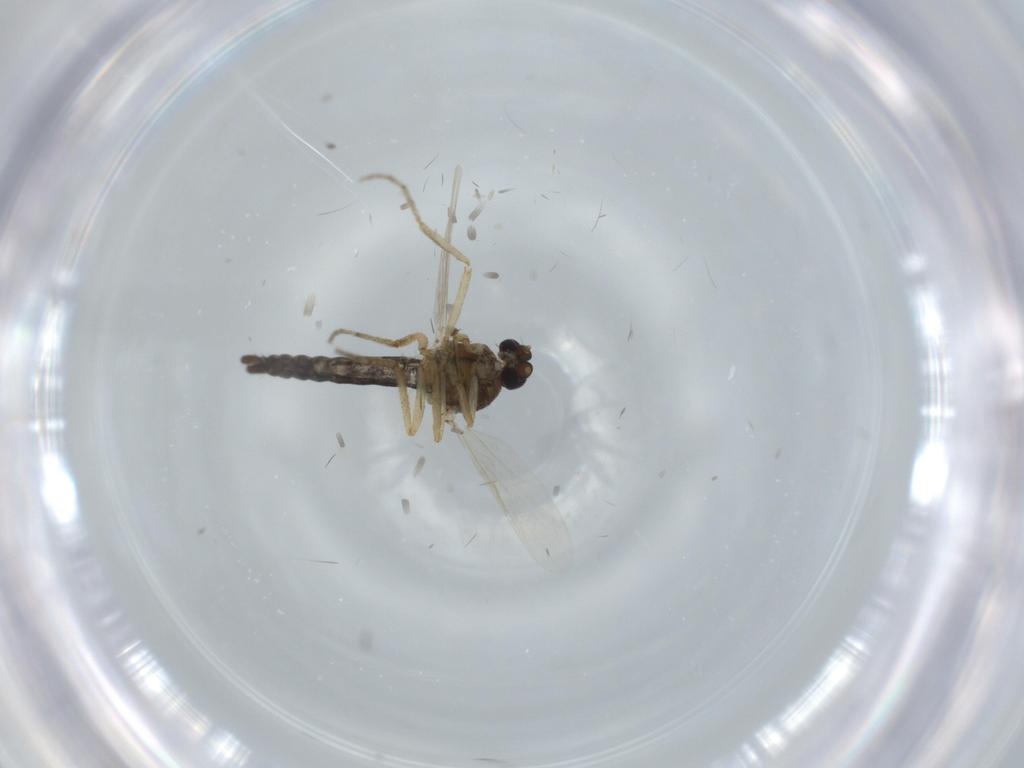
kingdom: Animalia
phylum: Arthropoda
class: Insecta
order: Diptera
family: Ceratopogonidae
